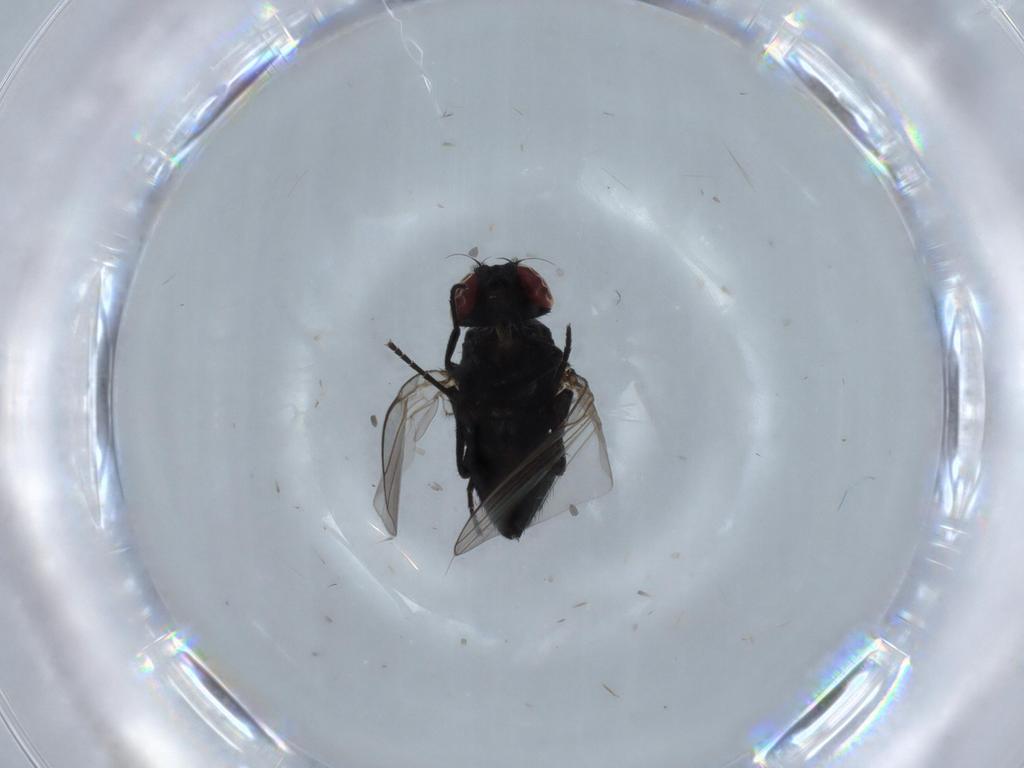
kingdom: Animalia
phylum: Arthropoda
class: Insecta
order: Diptera
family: Agromyzidae
